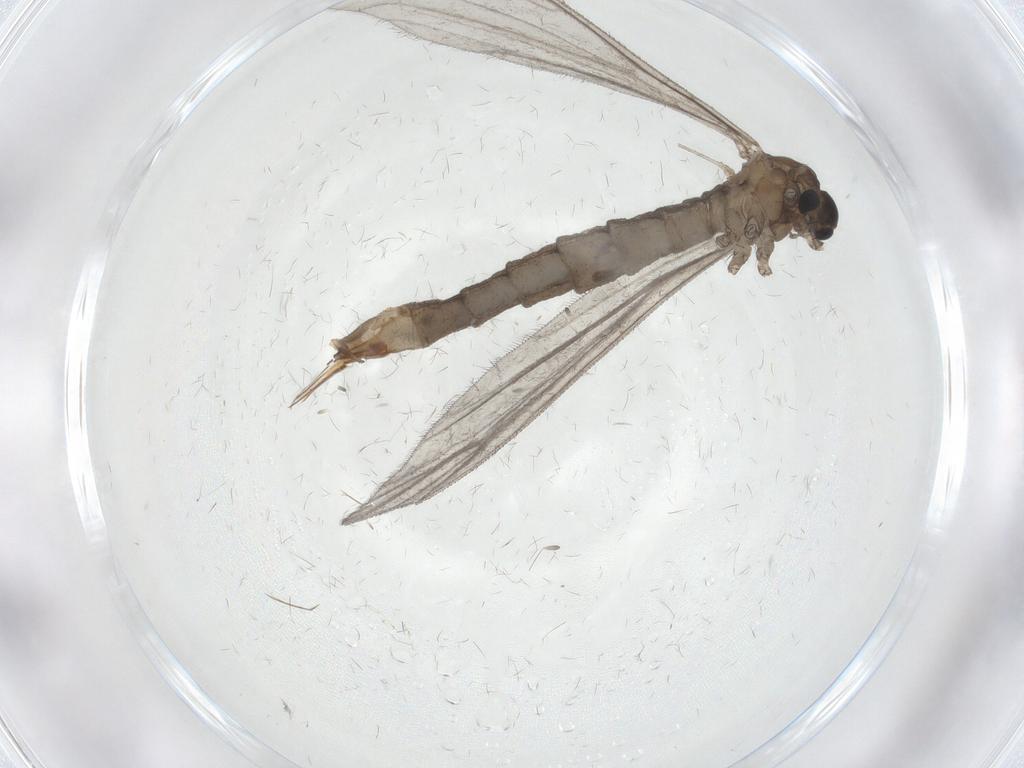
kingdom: Animalia
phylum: Arthropoda
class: Insecta
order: Diptera
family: Limoniidae
